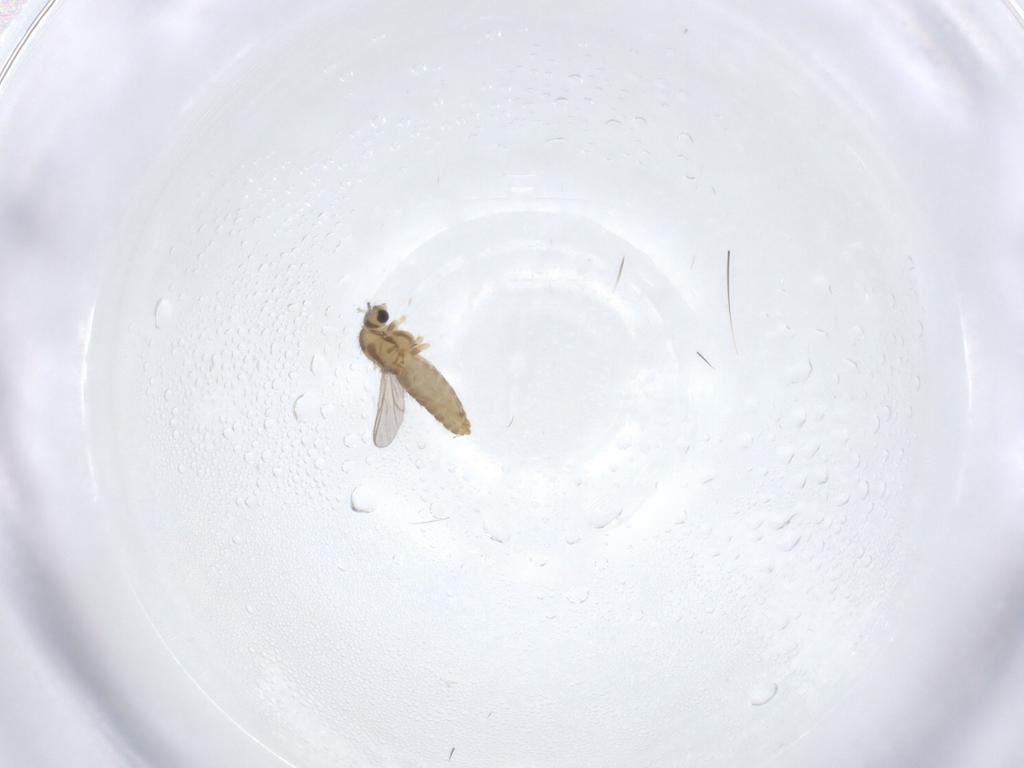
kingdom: Animalia
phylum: Arthropoda
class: Insecta
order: Diptera
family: Chironomidae
